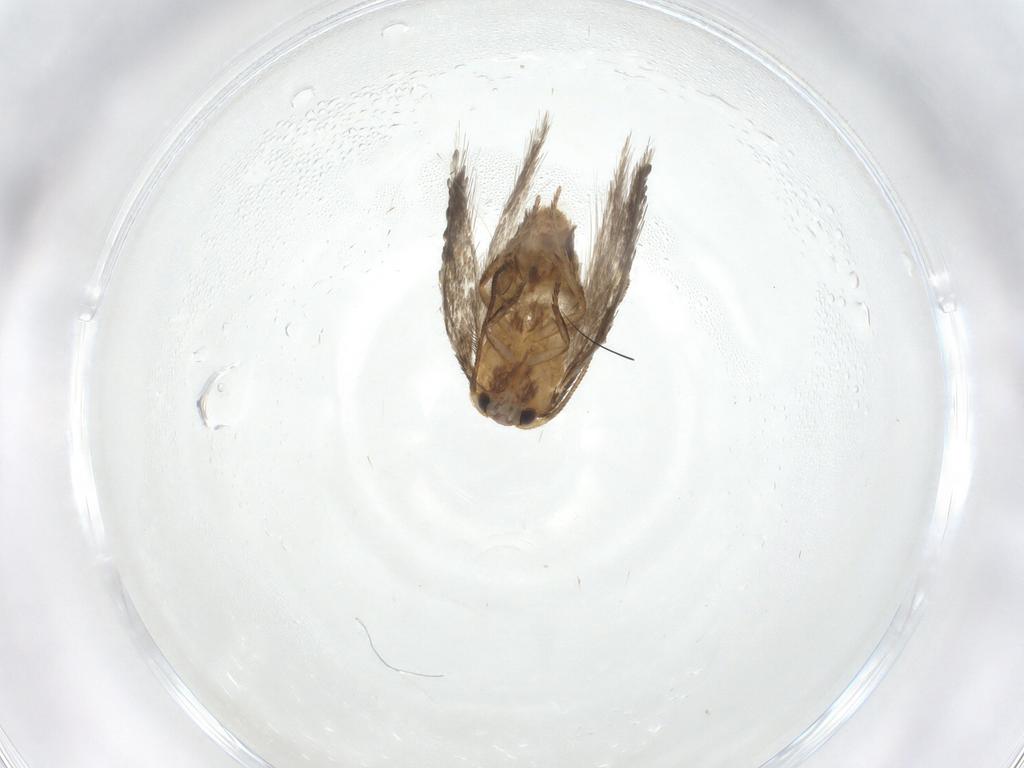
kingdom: Animalia
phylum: Arthropoda
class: Insecta
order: Lepidoptera
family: Nepticulidae
